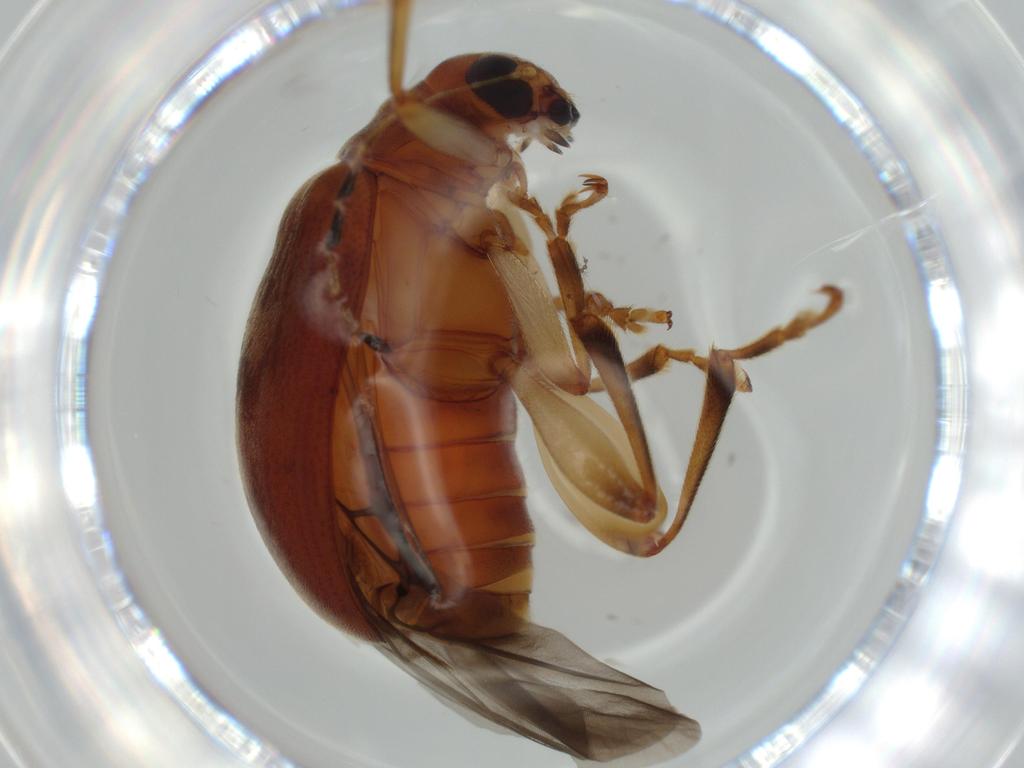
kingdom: Animalia
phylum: Arthropoda
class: Insecta
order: Coleoptera
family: Chrysomelidae
